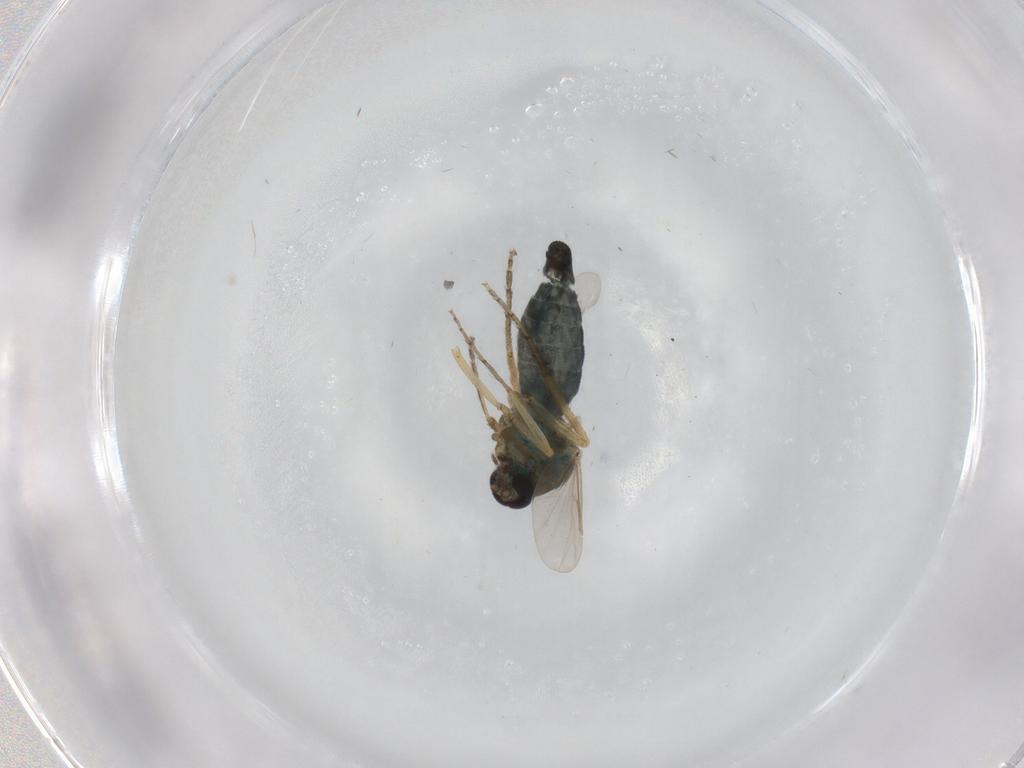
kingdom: Animalia
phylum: Arthropoda
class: Insecta
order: Diptera
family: Ceratopogonidae
